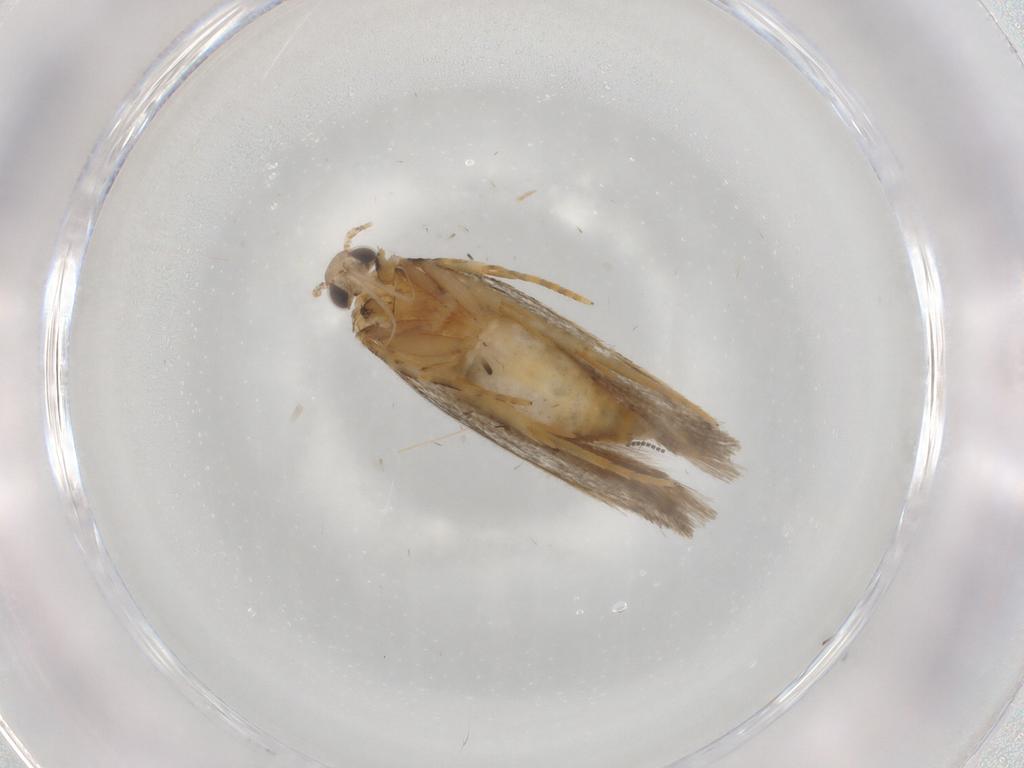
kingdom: Animalia
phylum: Arthropoda
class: Insecta
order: Lepidoptera
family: Autostichidae
